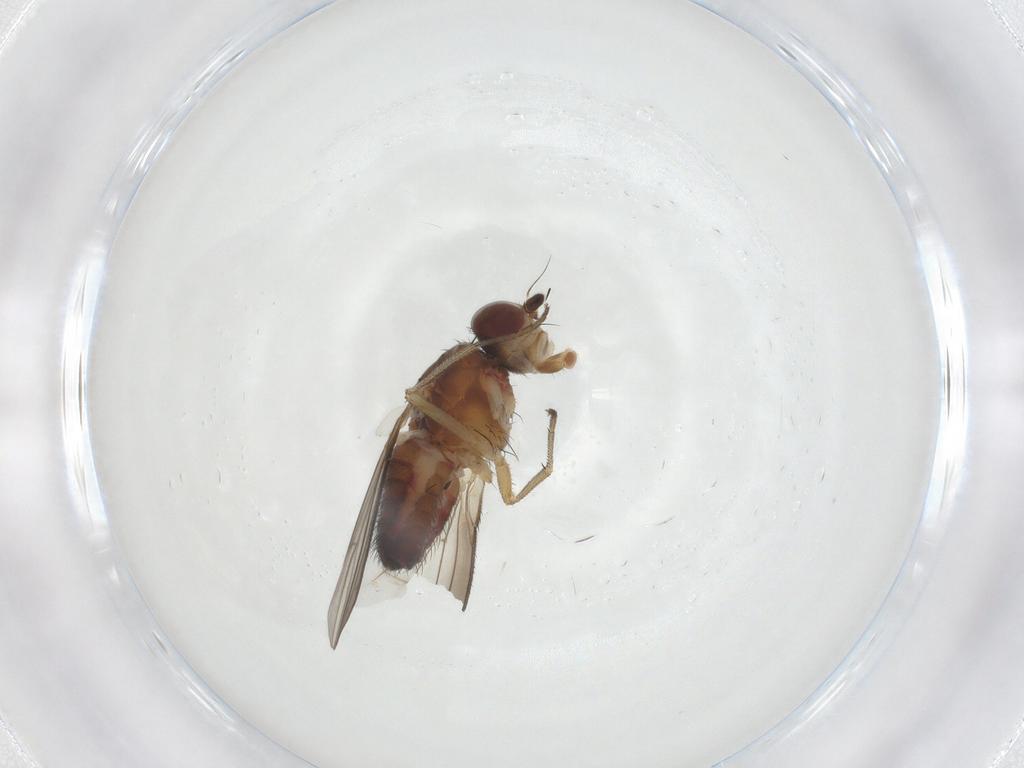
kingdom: Animalia
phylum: Arthropoda
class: Insecta
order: Diptera
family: Heleomyzidae
